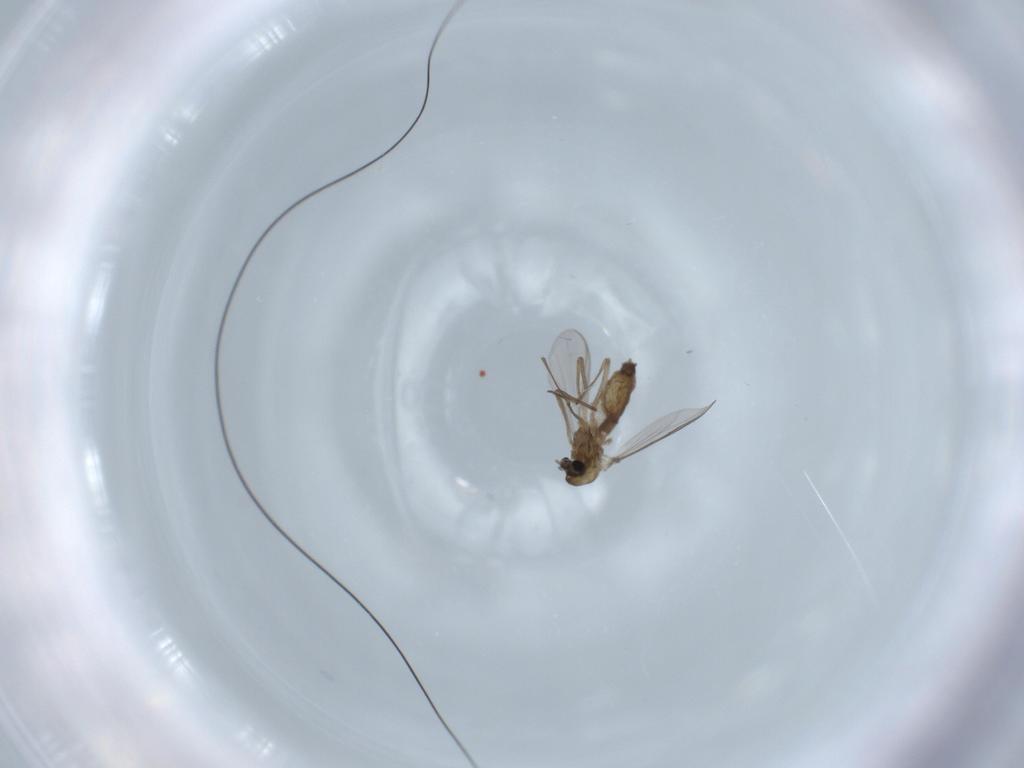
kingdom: Animalia
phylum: Arthropoda
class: Insecta
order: Diptera
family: Chironomidae
